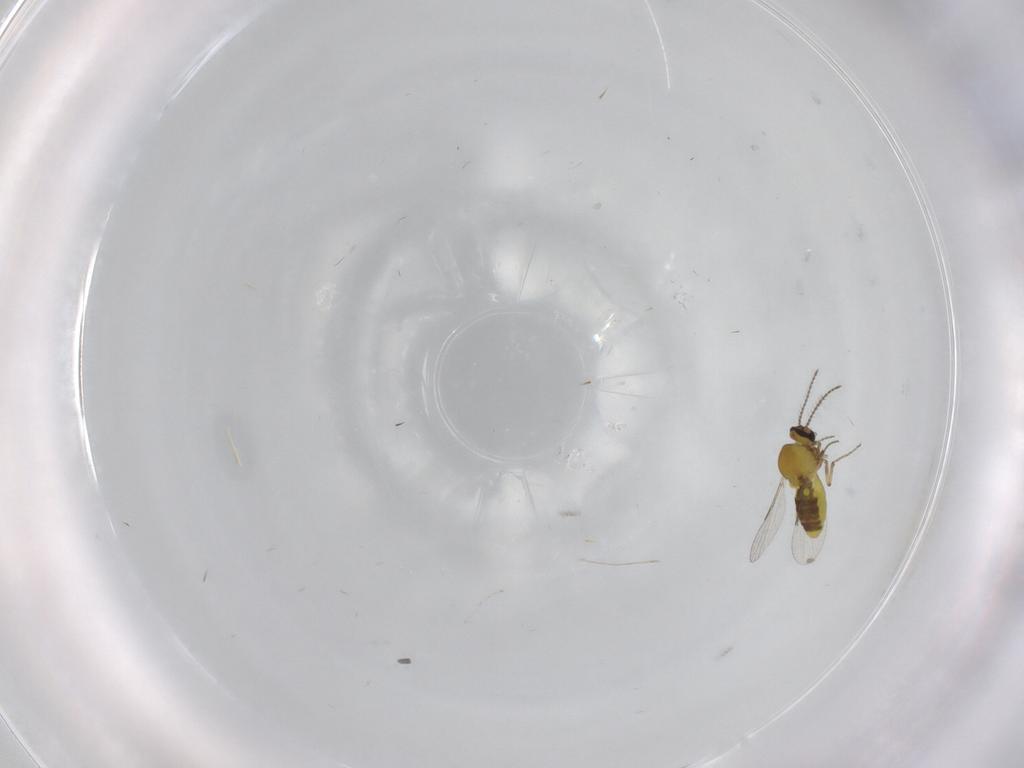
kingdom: Animalia
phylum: Arthropoda
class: Insecta
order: Diptera
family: Cecidomyiidae
